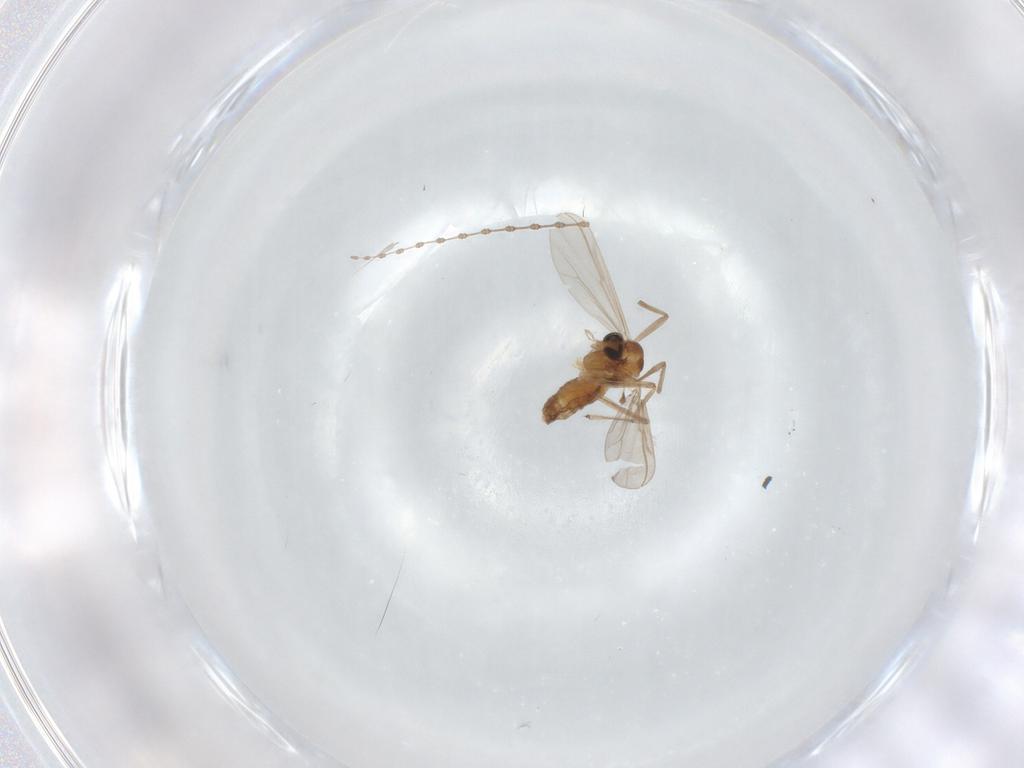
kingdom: Animalia
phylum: Arthropoda
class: Insecta
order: Diptera
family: Chironomidae
